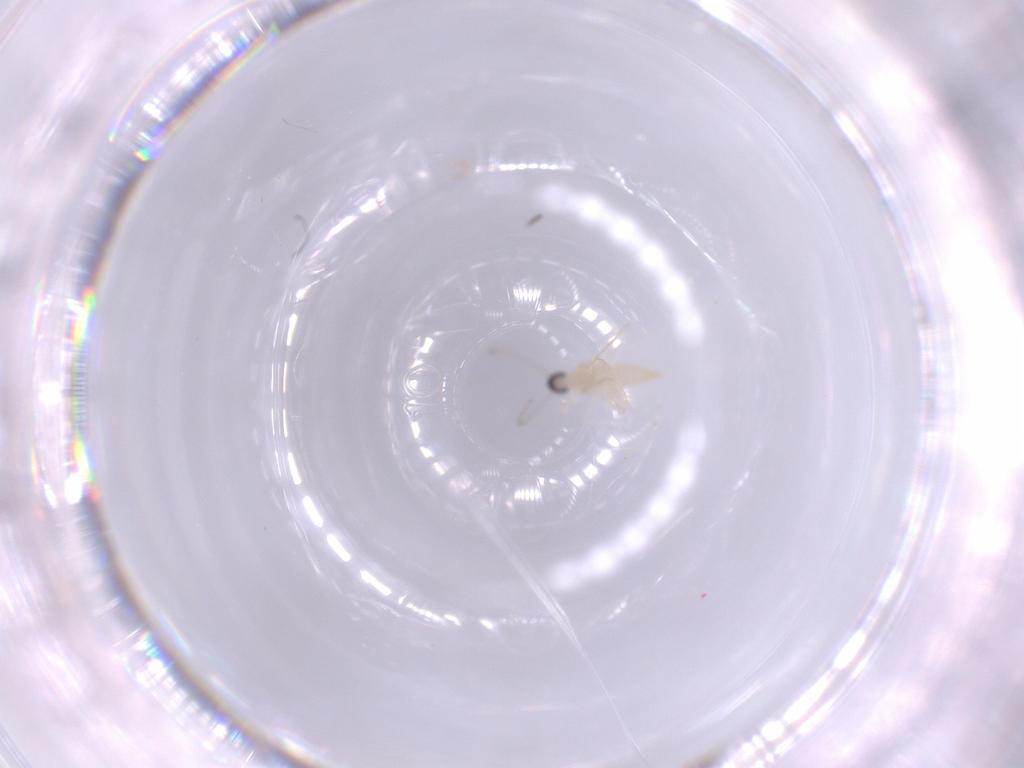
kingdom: Animalia
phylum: Arthropoda
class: Insecta
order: Diptera
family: Cecidomyiidae
